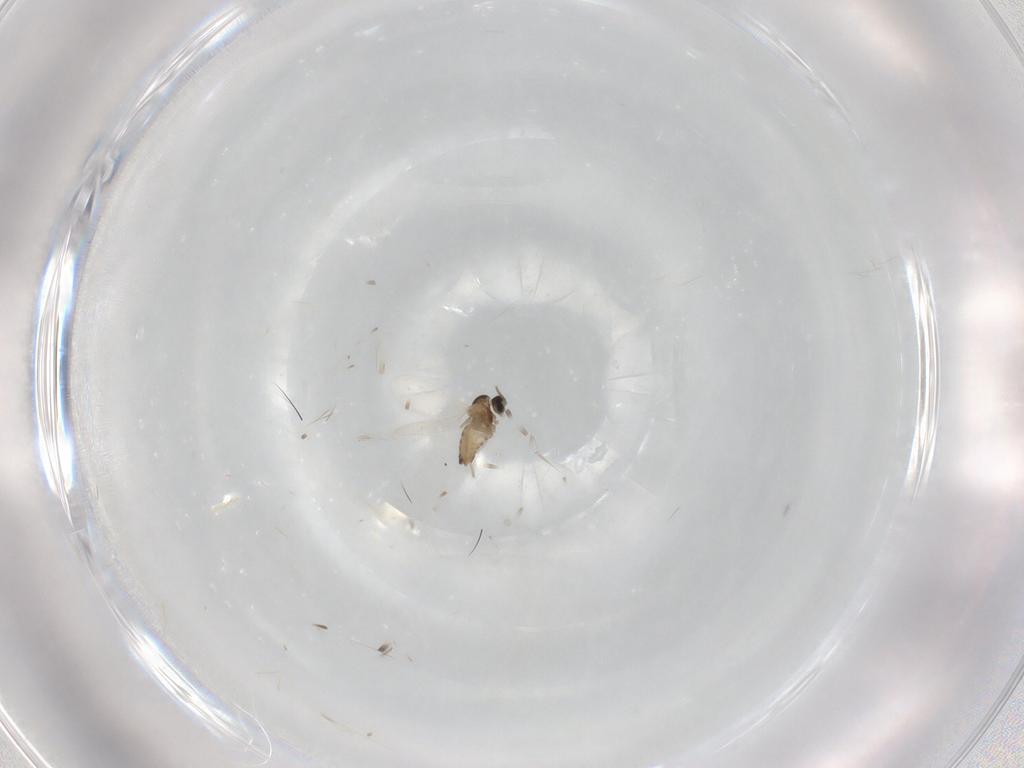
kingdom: Animalia
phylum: Arthropoda
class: Insecta
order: Diptera
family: Cecidomyiidae
